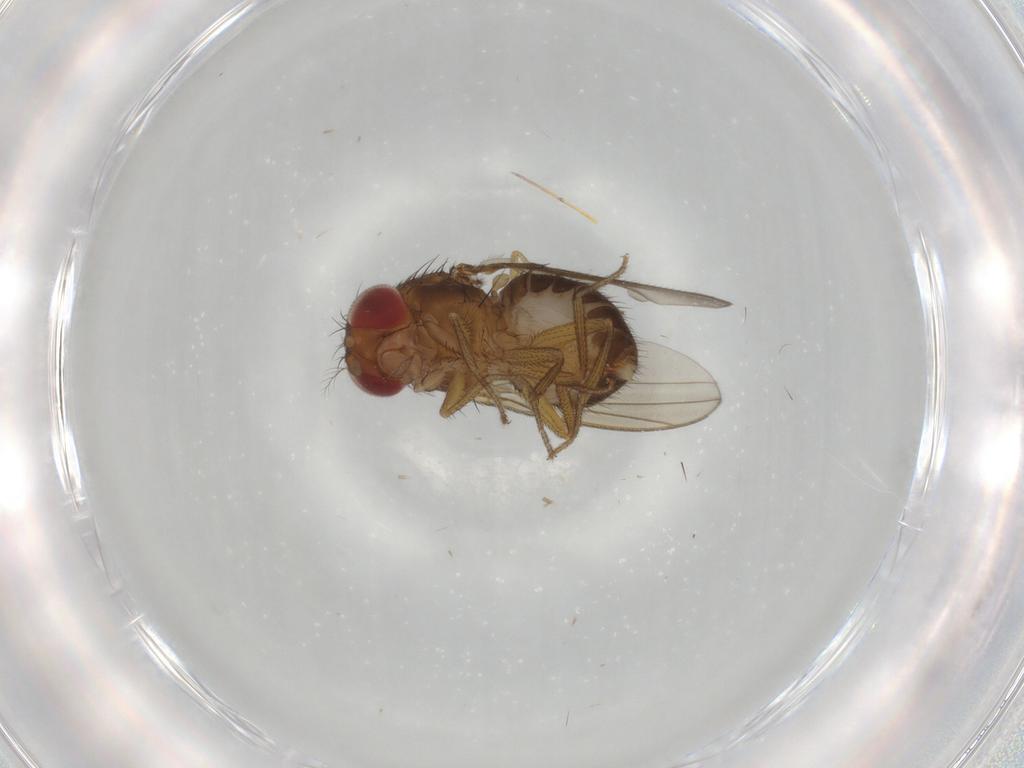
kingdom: Animalia
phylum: Arthropoda
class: Insecta
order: Diptera
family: Drosophilidae
